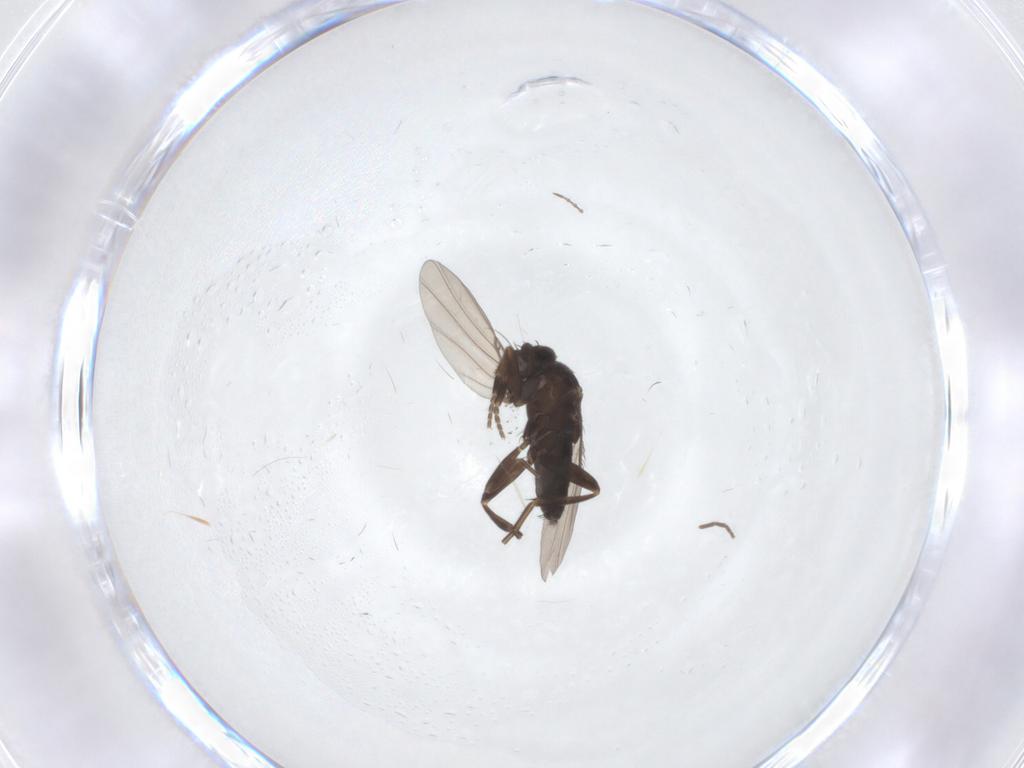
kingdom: Animalia
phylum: Arthropoda
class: Insecta
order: Diptera
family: Phoridae
